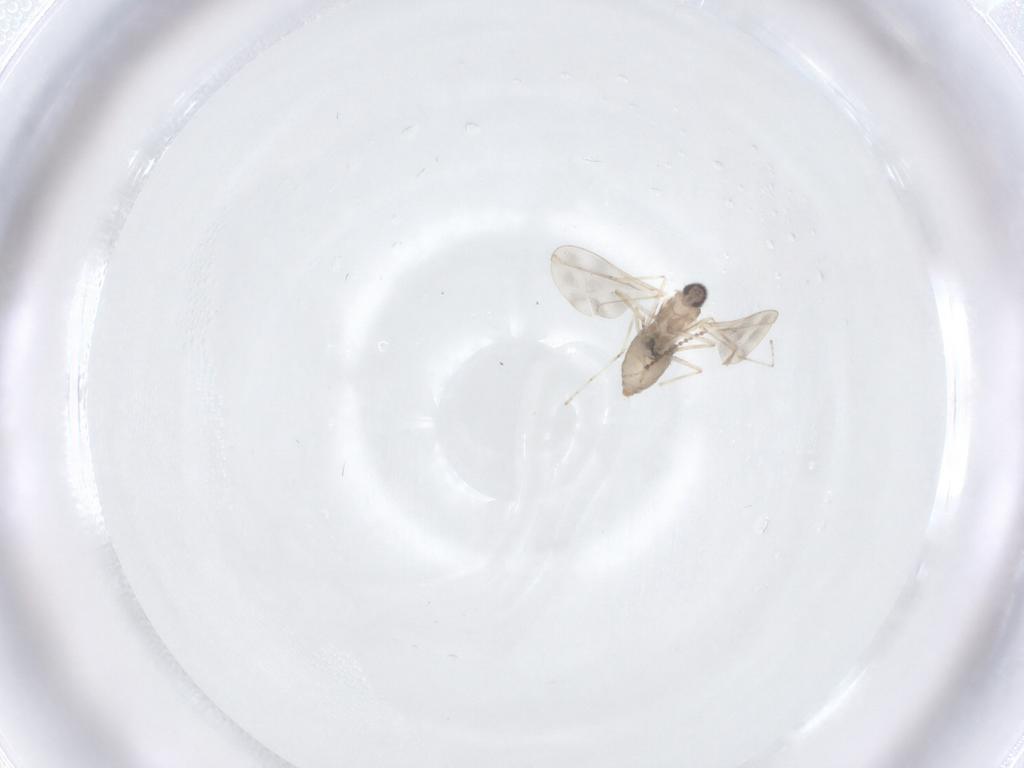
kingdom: Animalia
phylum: Arthropoda
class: Insecta
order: Diptera
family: Cecidomyiidae
